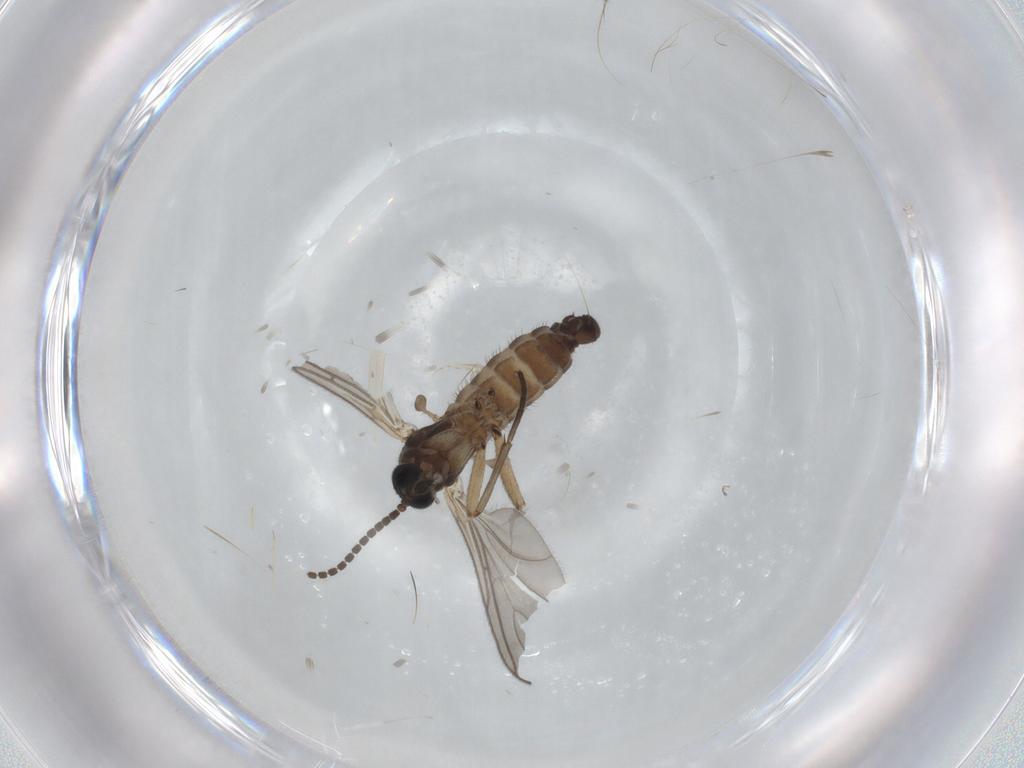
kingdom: Animalia
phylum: Arthropoda
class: Insecta
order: Diptera
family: Sciaridae
